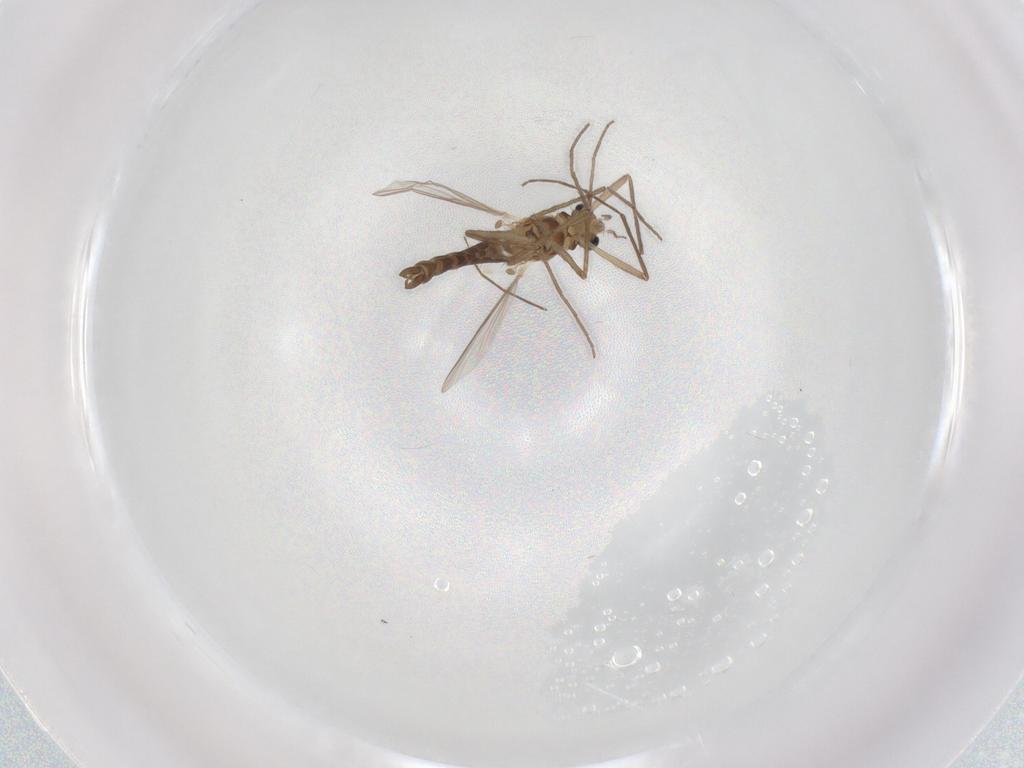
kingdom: Animalia
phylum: Arthropoda
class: Insecta
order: Diptera
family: Chironomidae
